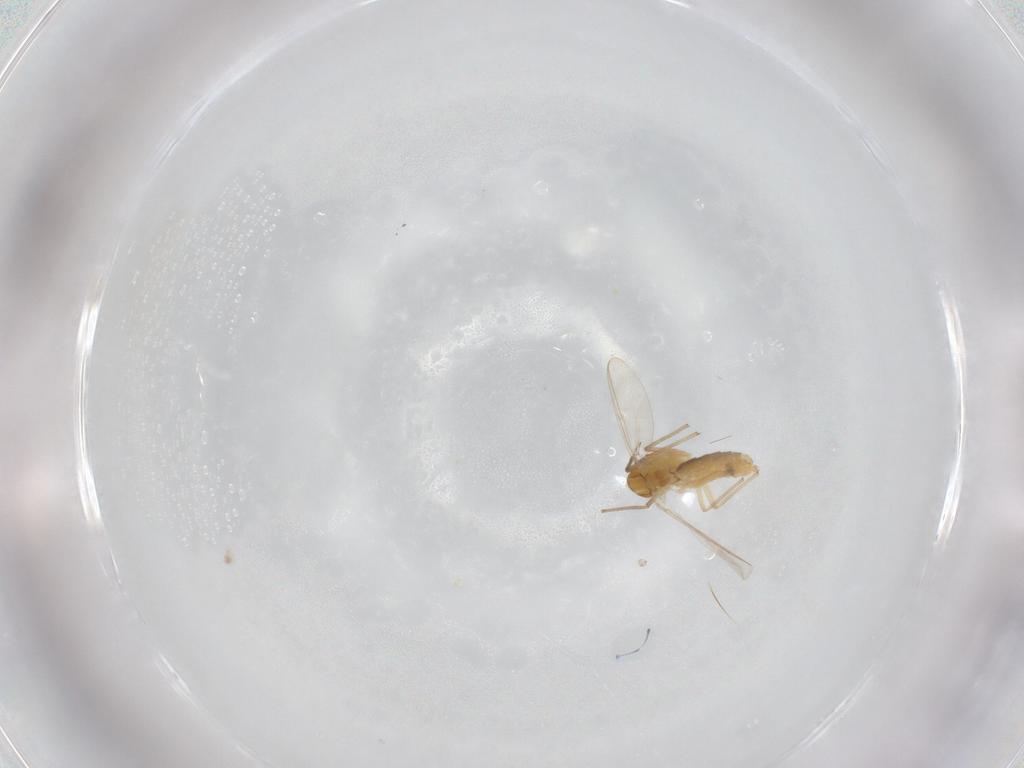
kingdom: Animalia
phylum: Arthropoda
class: Insecta
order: Diptera
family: Chironomidae
